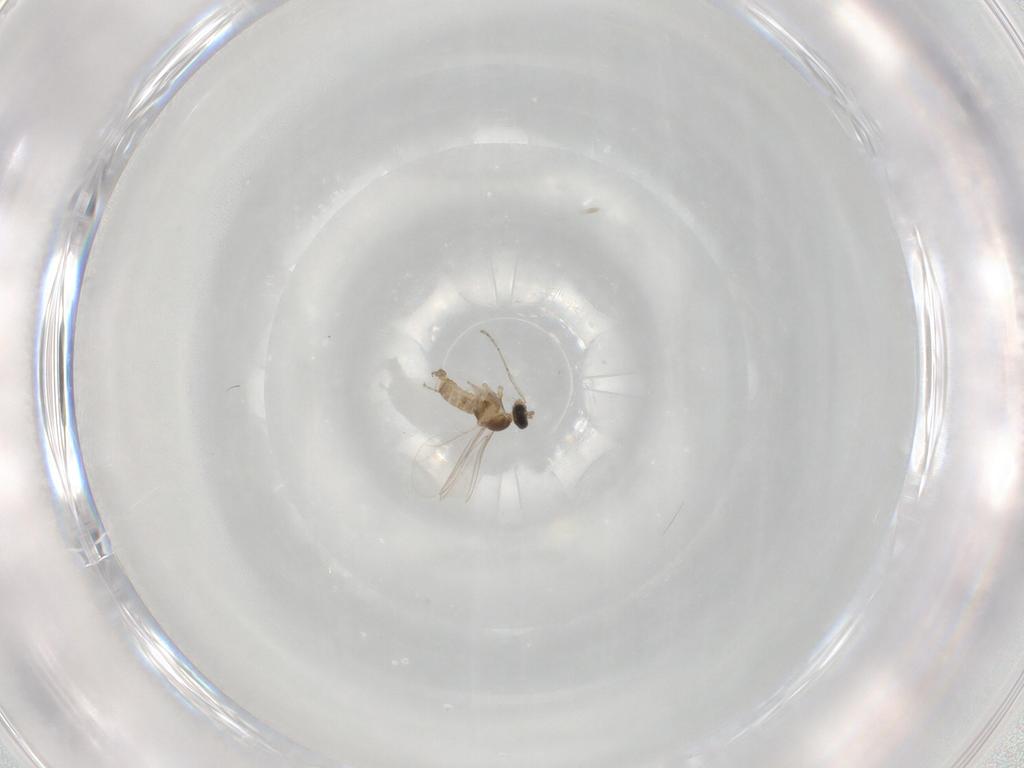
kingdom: Animalia
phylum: Arthropoda
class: Insecta
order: Diptera
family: Cecidomyiidae
